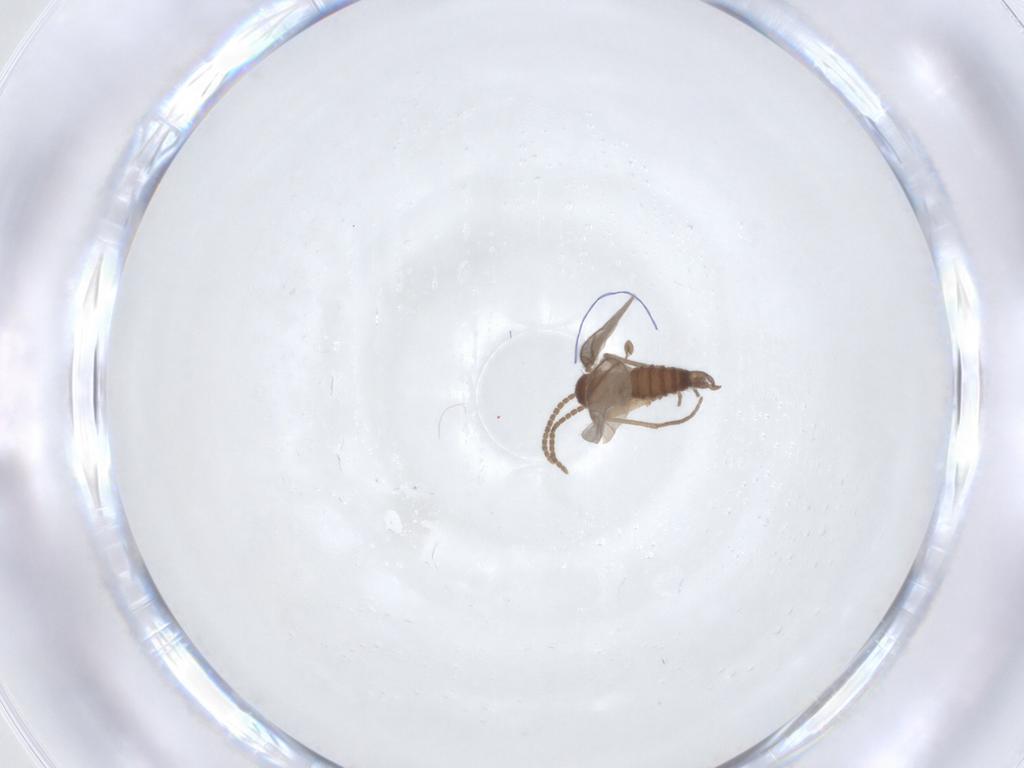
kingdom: Animalia
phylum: Arthropoda
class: Insecta
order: Diptera
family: Sciaridae
